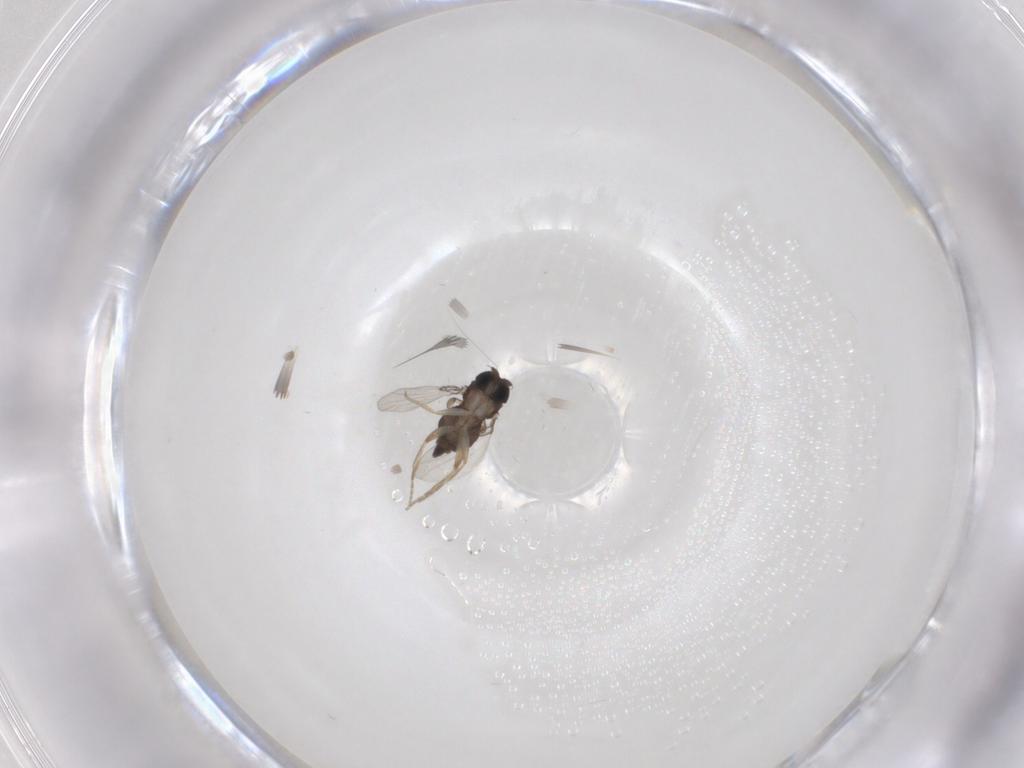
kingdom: Animalia
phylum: Arthropoda
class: Insecta
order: Diptera
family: Phoridae
